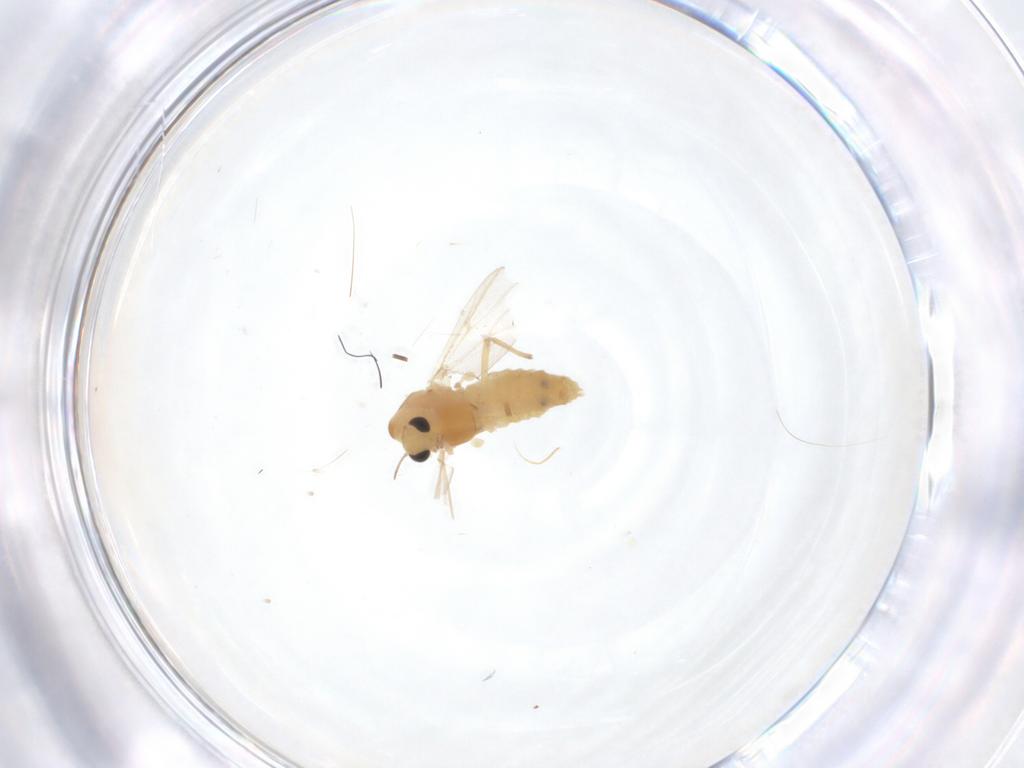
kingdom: Animalia
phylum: Arthropoda
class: Insecta
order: Diptera
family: Chironomidae
